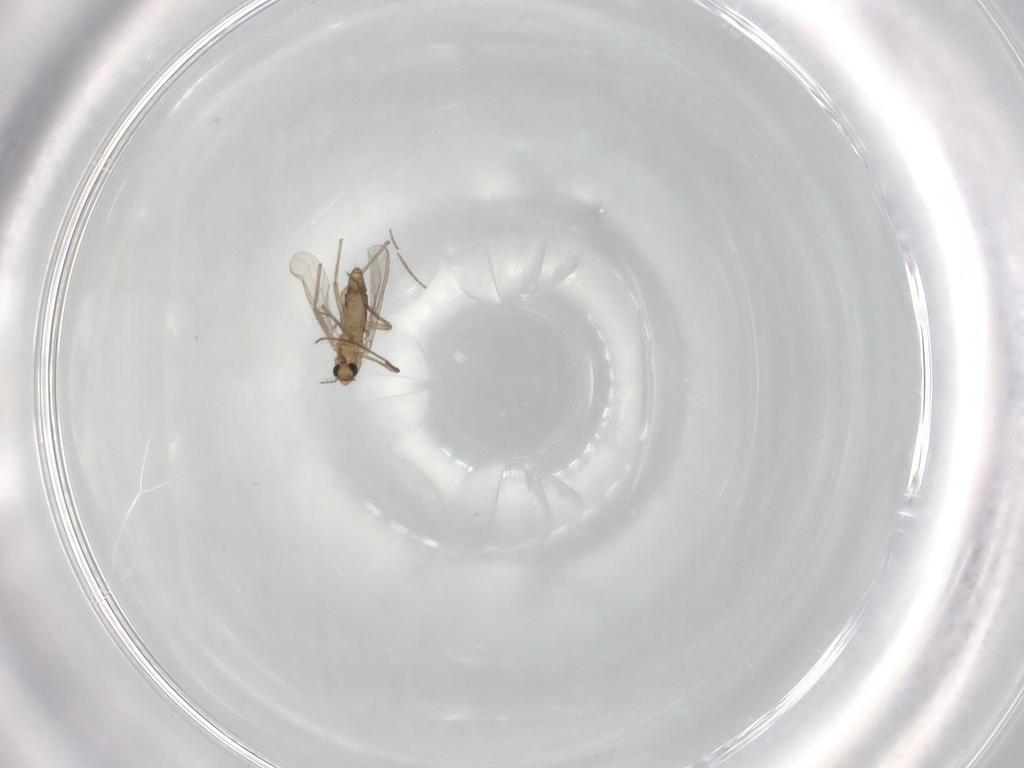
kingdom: Animalia
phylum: Arthropoda
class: Insecta
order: Diptera
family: Chironomidae
